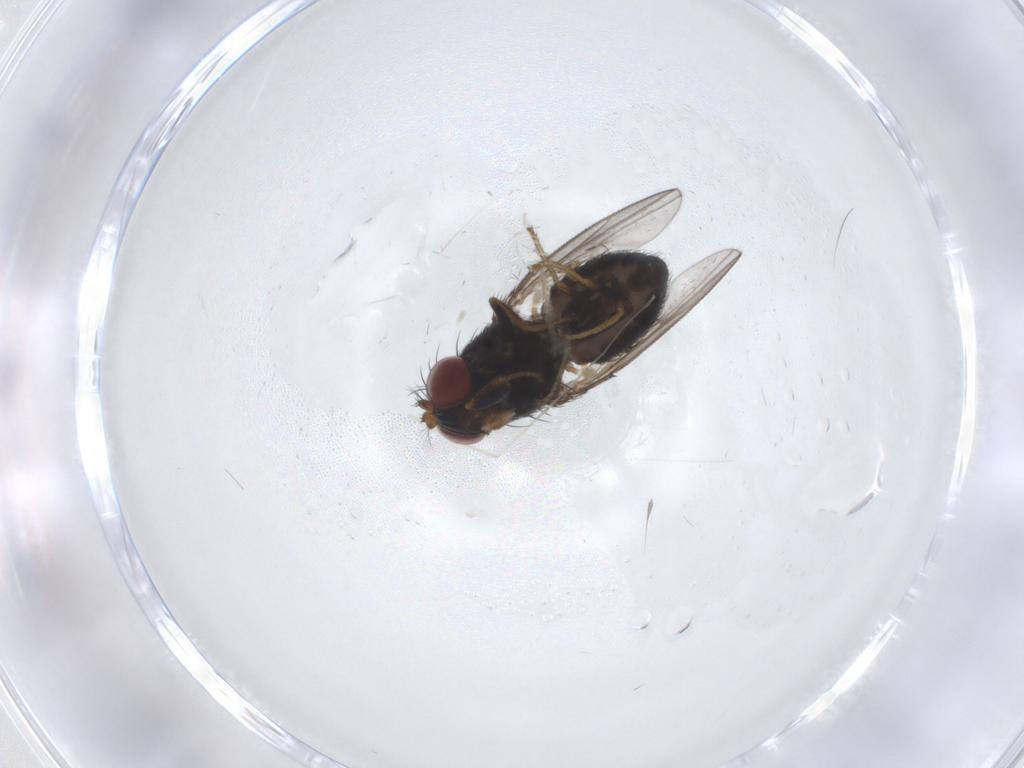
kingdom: Animalia
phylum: Arthropoda
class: Insecta
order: Diptera
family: Cecidomyiidae
